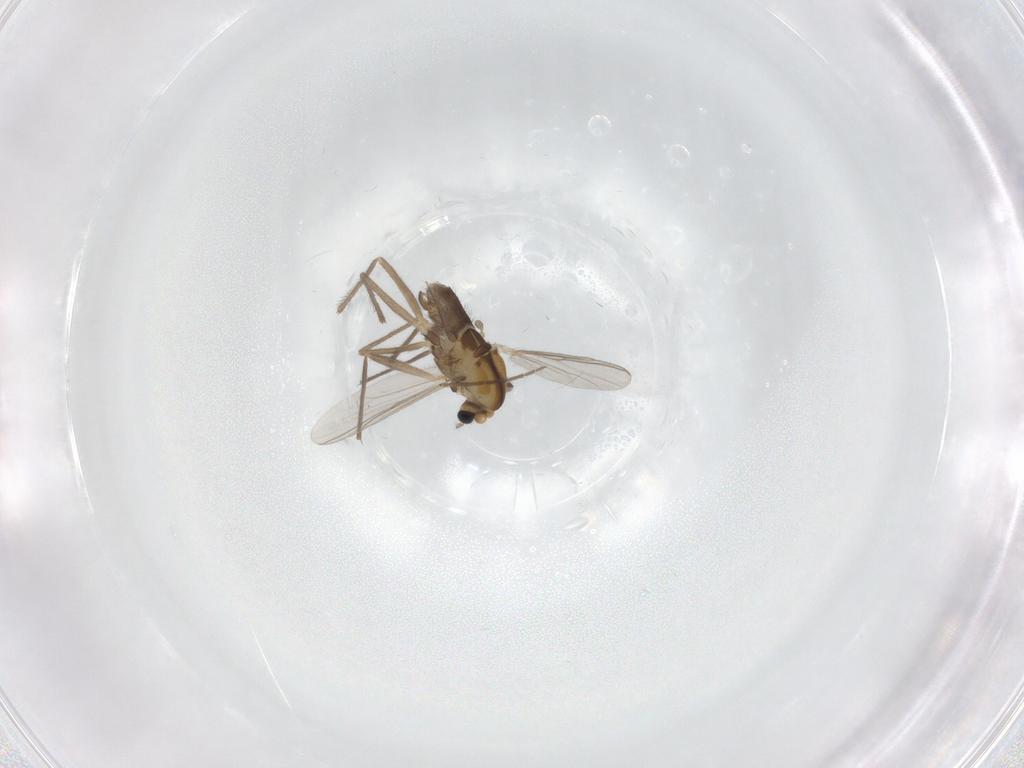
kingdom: Animalia
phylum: Arthropoda
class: Insecta
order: Diptera
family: Chironomidae
